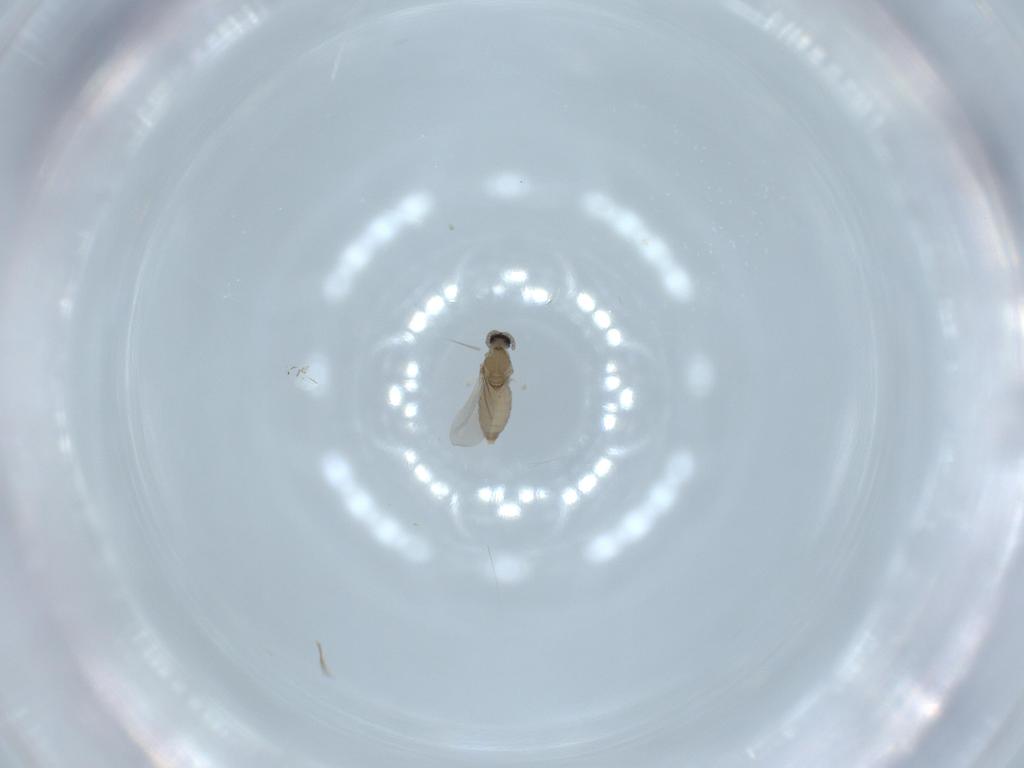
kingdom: Animalia
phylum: Arthropoda
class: Insecta
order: Diptera
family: Cecidomyiidae
